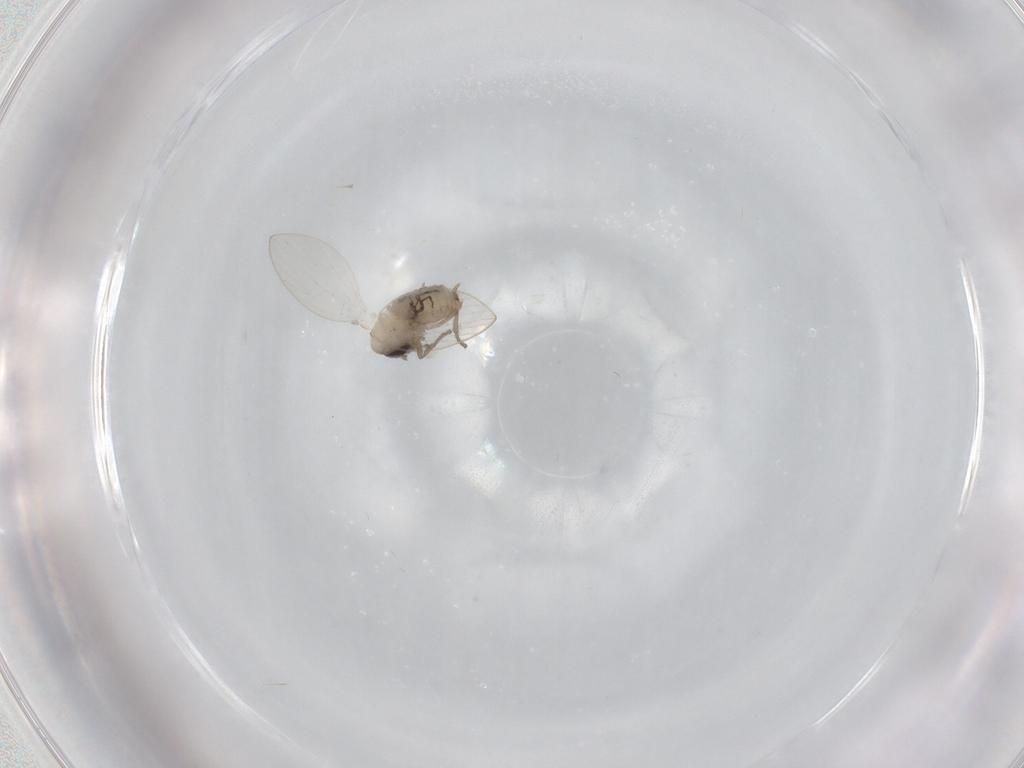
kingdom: Animalia
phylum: Arthropoda
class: Insecta
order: Diptera
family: Psychodidae
